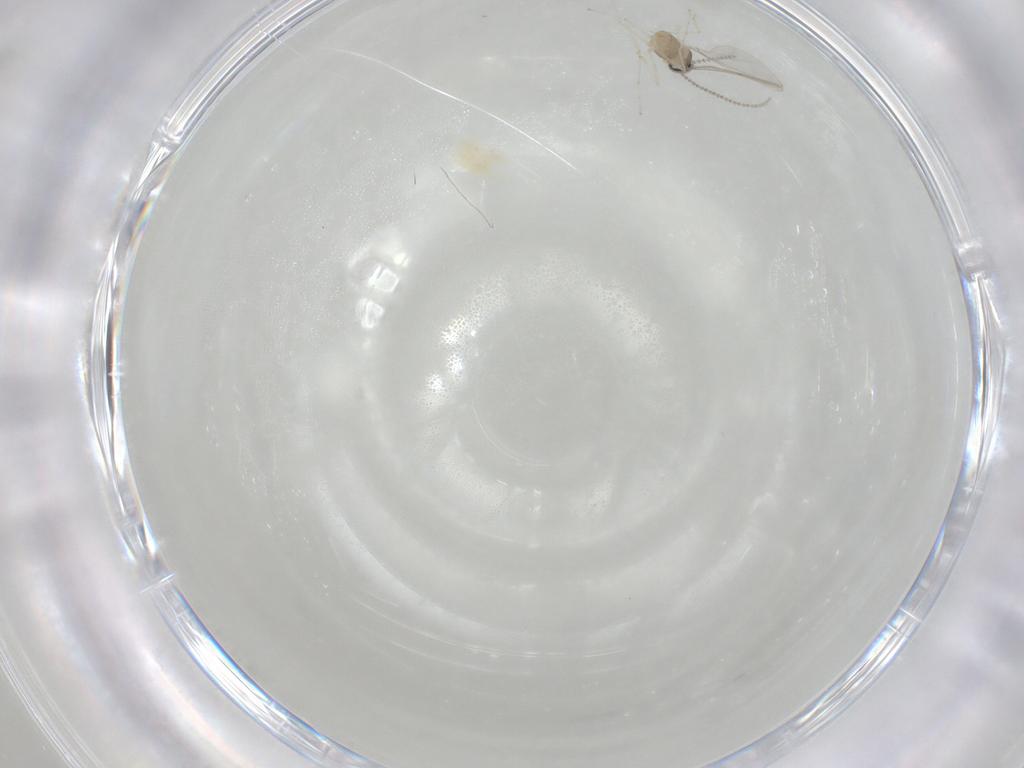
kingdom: Animalia
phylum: Arthropoda
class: Insecta
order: Diptera
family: Cecidomyiidae
